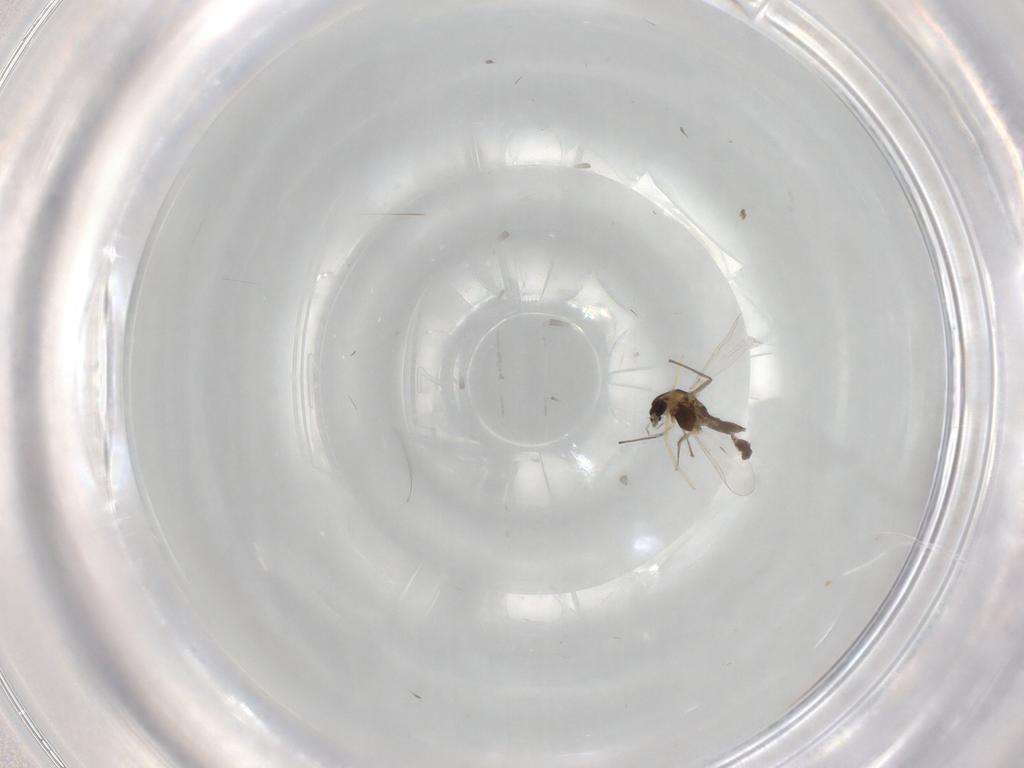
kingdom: Animalia
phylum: Arthropoda
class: Insecta
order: Diptera
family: Chironomidae
